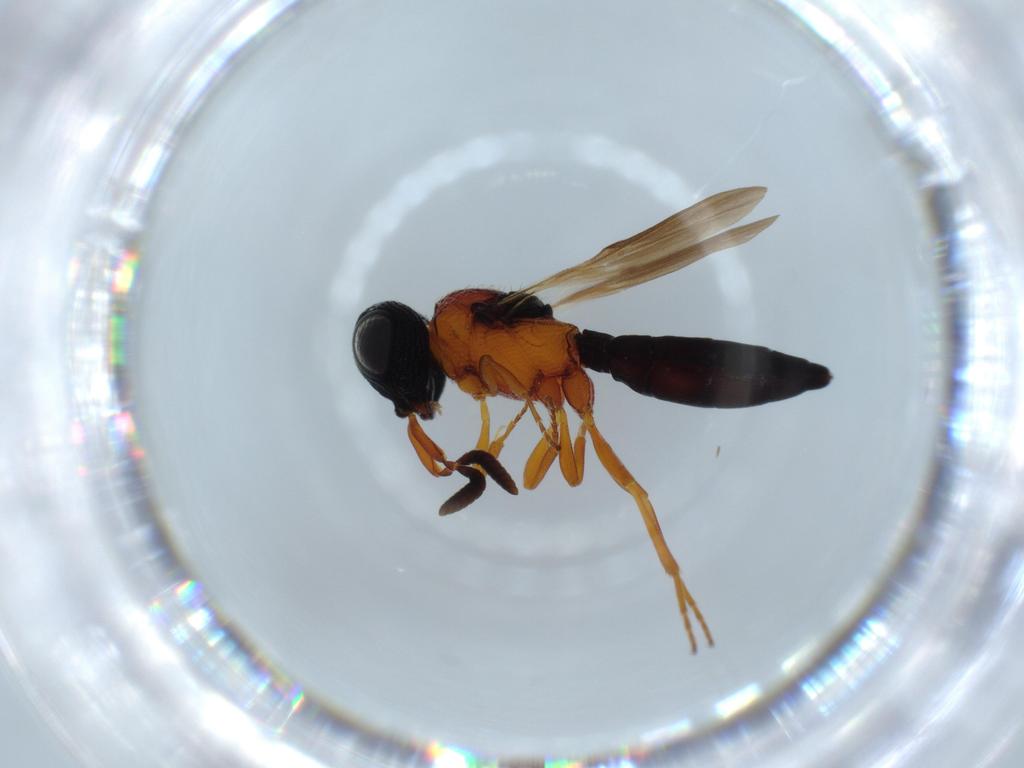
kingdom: Animalia
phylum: Arthropoda
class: Insecta
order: Hymenoptera
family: Scelionidae
